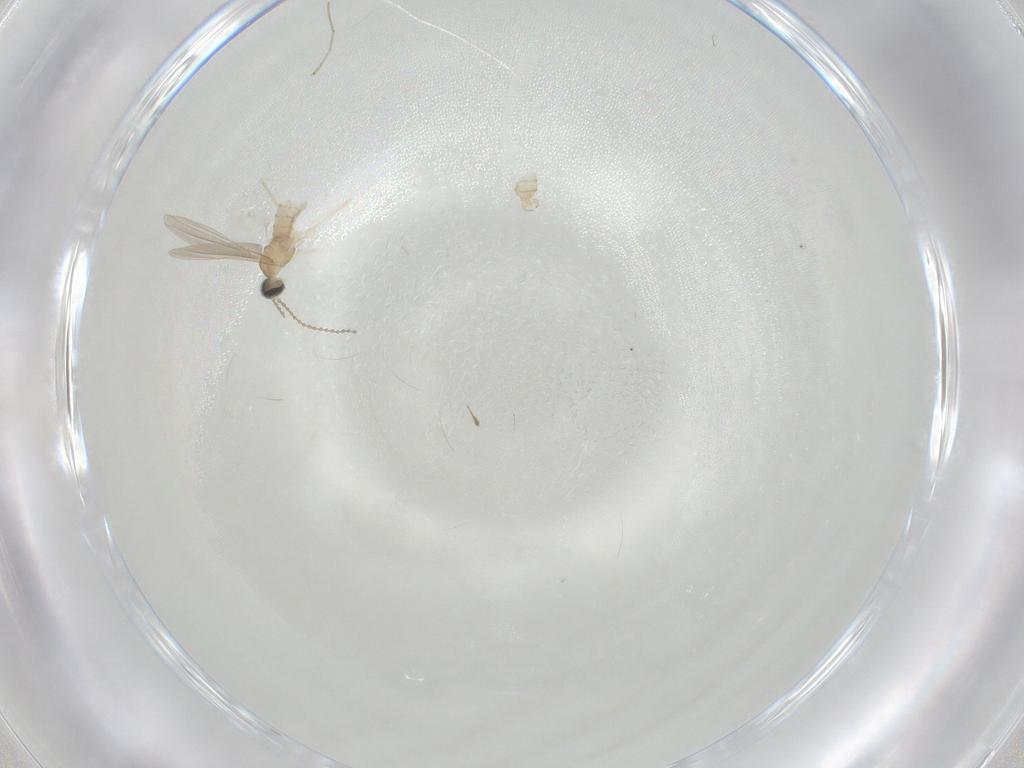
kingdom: Animalia
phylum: Arthropoda
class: Insecta
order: Diptera
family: Cecidomyiidae
